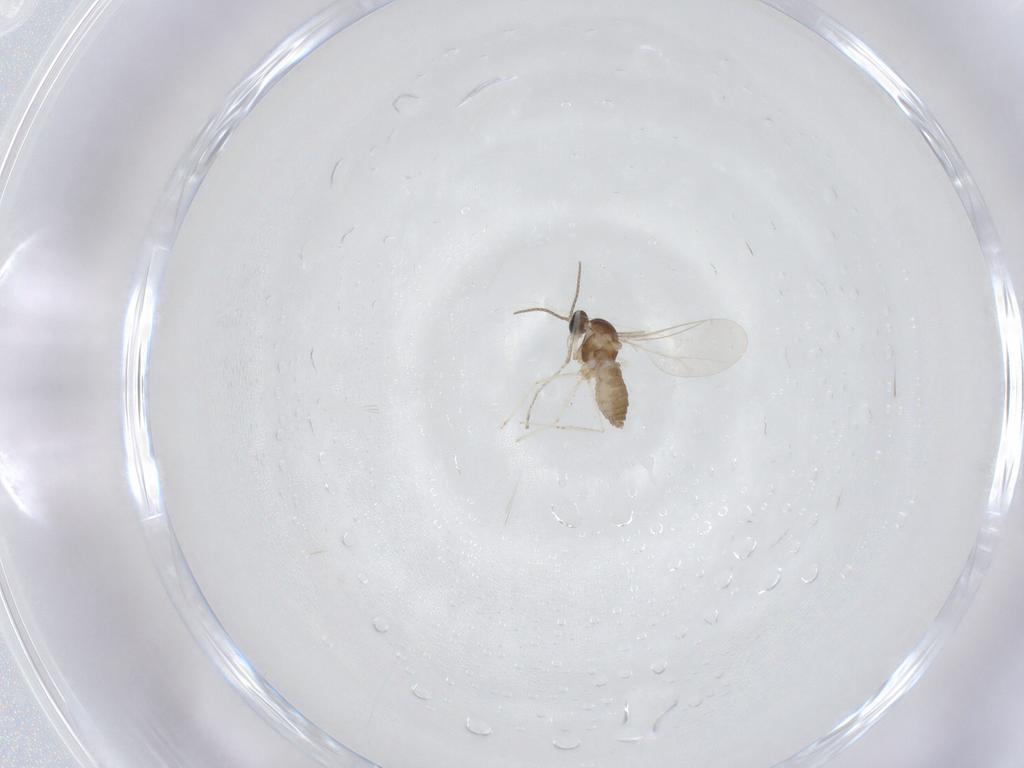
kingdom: Animalia
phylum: Arthropoda
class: Insecta
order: Diptera
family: Cecidomyiidae
